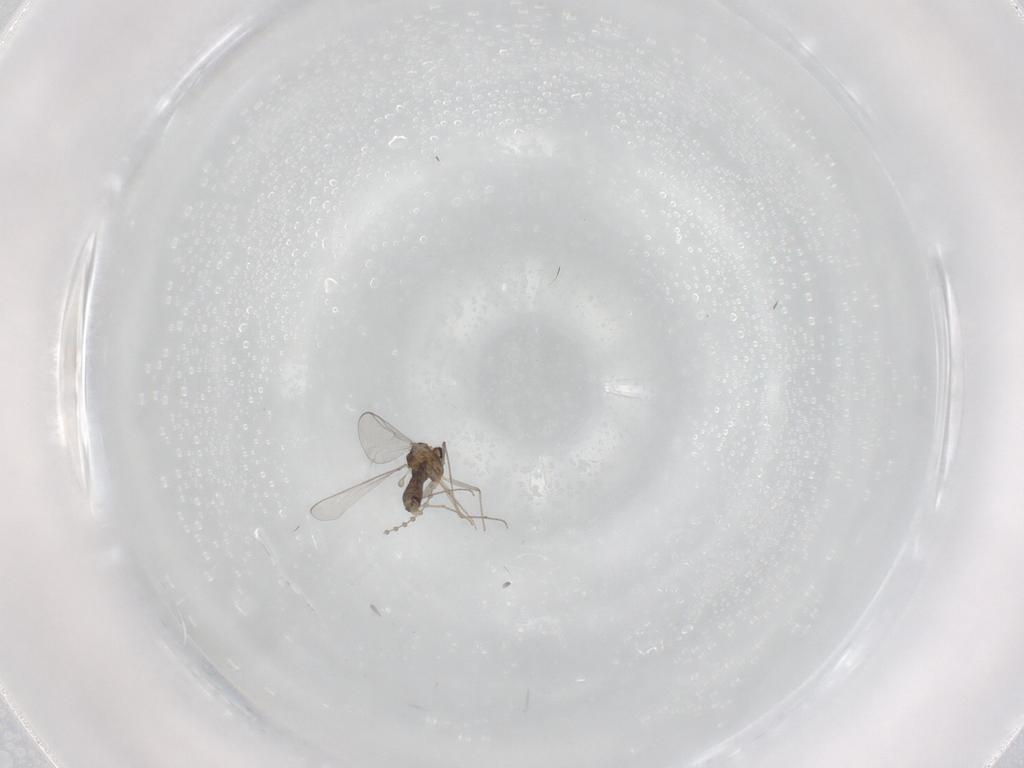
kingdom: Animalia
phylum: Arthropoda
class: Insecta
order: Diptera
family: Chironomidae
